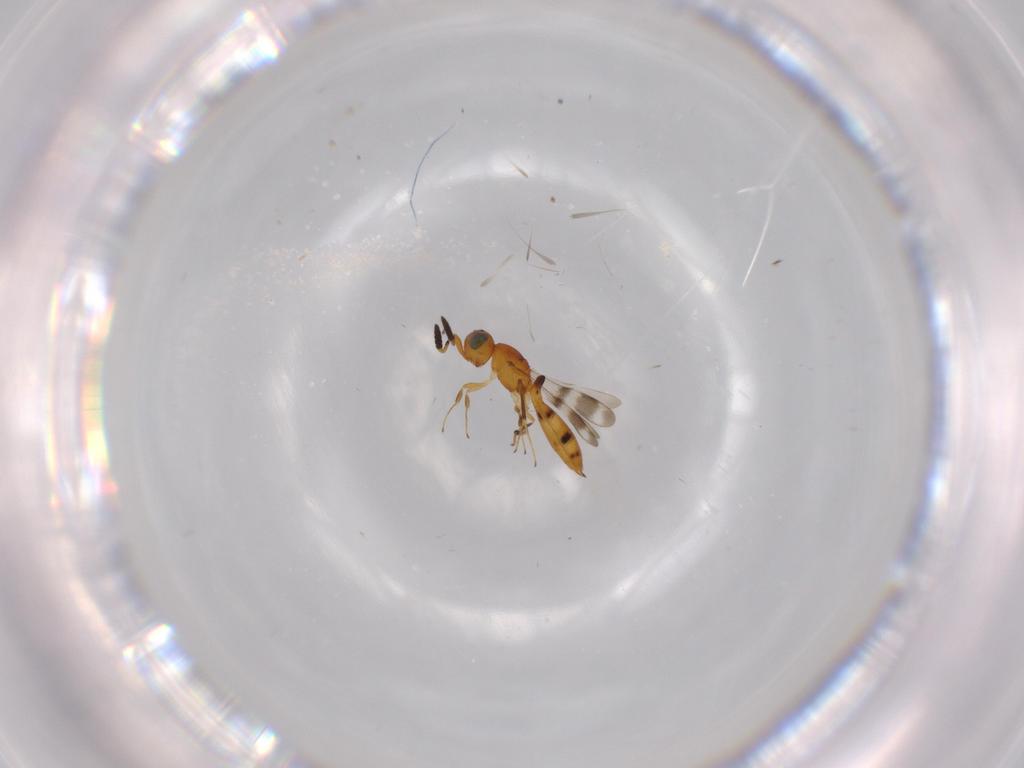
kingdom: Animalia
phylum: Arthropoda
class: Insecta
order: Hymenoptera
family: Scelionidae
